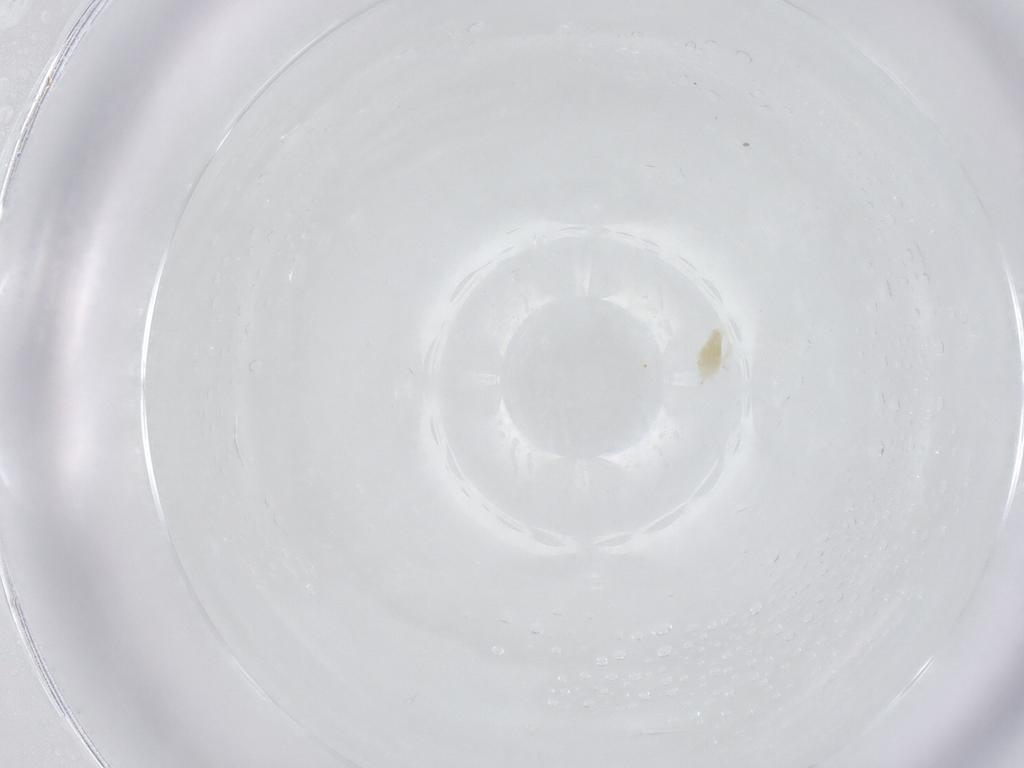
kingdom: Animalia
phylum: Arthropoda
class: Arachnida
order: Trombidiformes
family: Eupodidae
